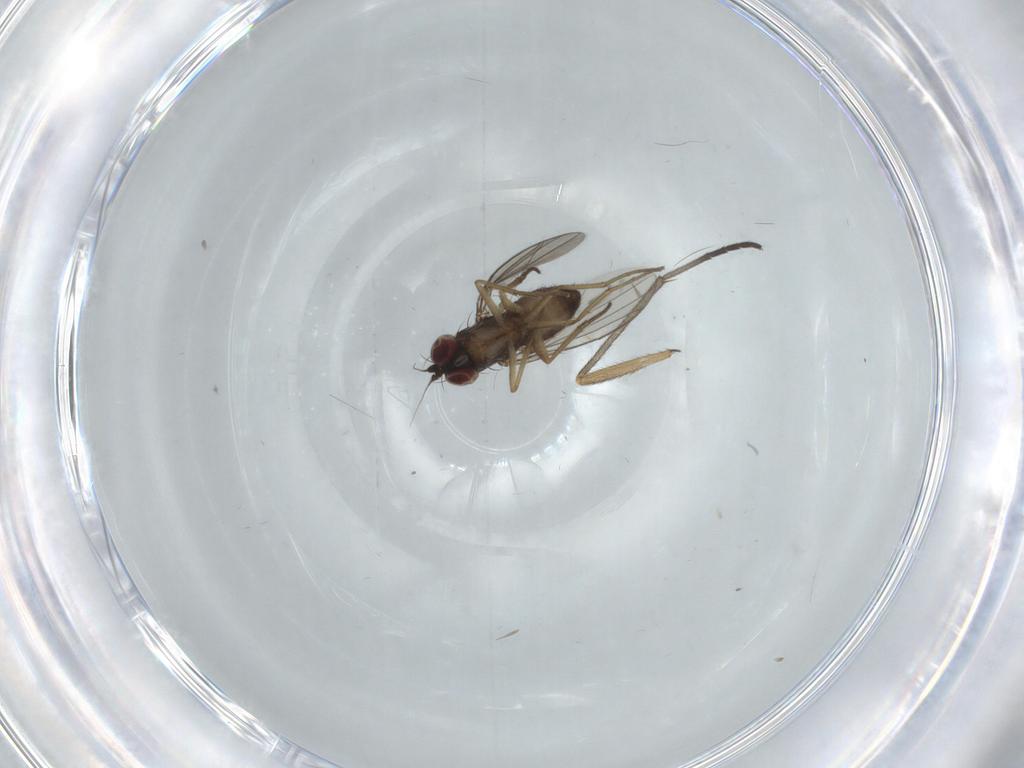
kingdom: Animalia
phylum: Arthropoda
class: Insecta
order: Diptera
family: Dolichopodidae
